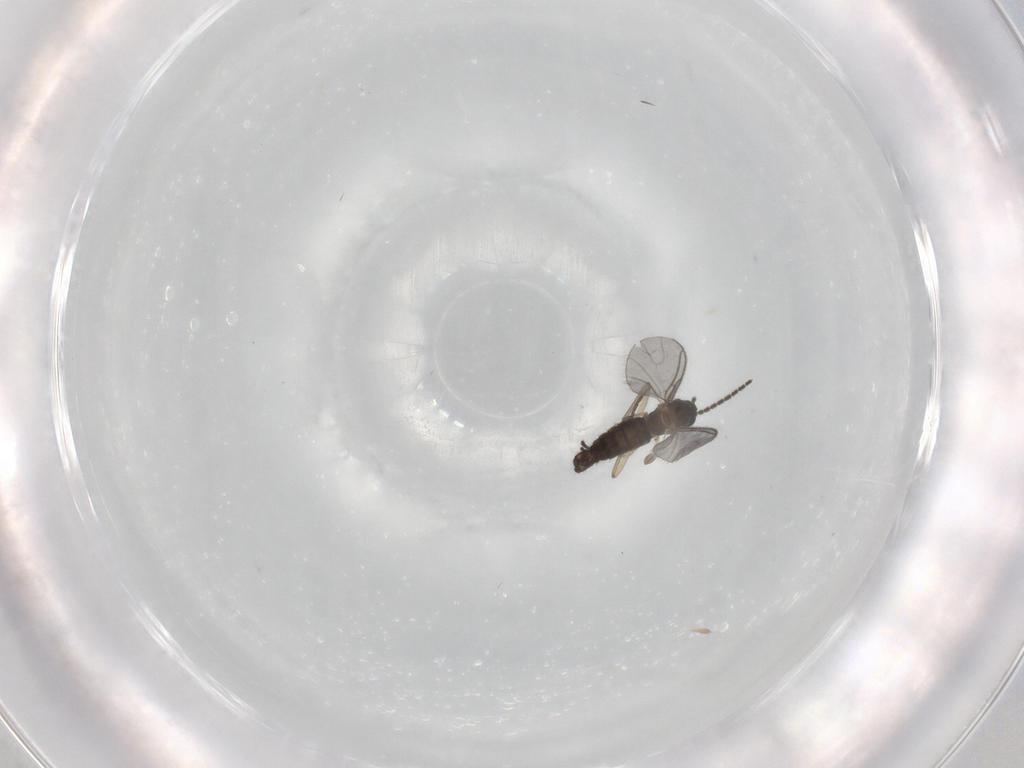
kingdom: Animalia
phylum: Arthropoda
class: Insecta
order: Diptera
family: Sciaridae
